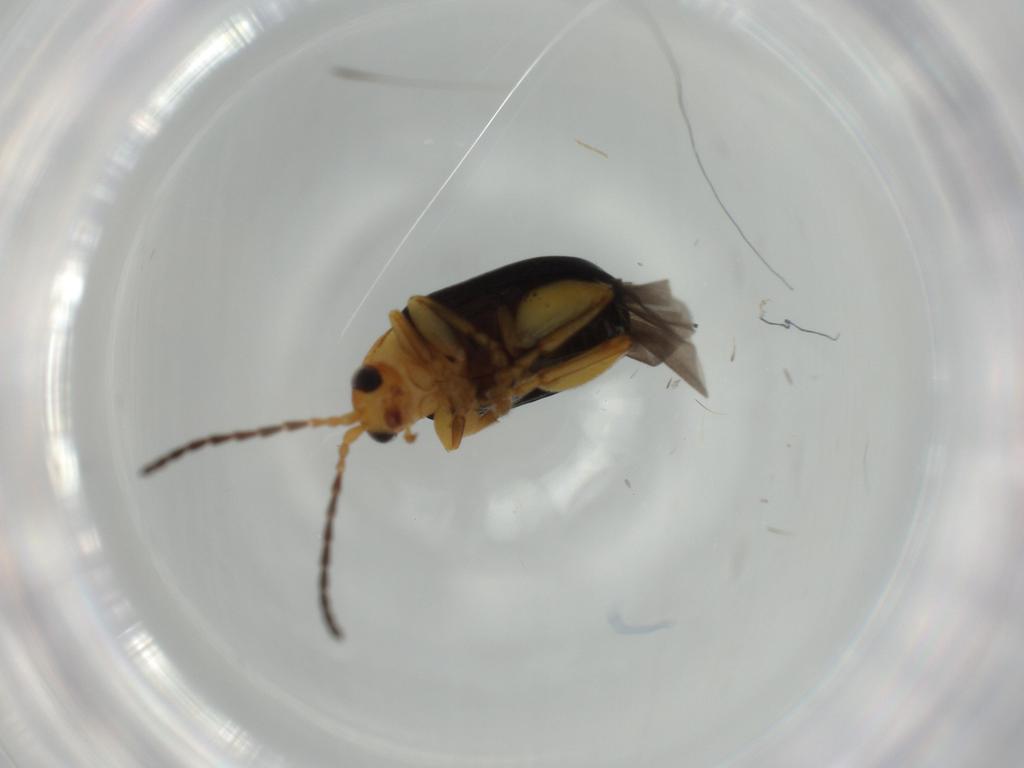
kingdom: Animalia
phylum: Arthropoda
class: Insecta
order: Coleoptera
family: Chrysomelidae
